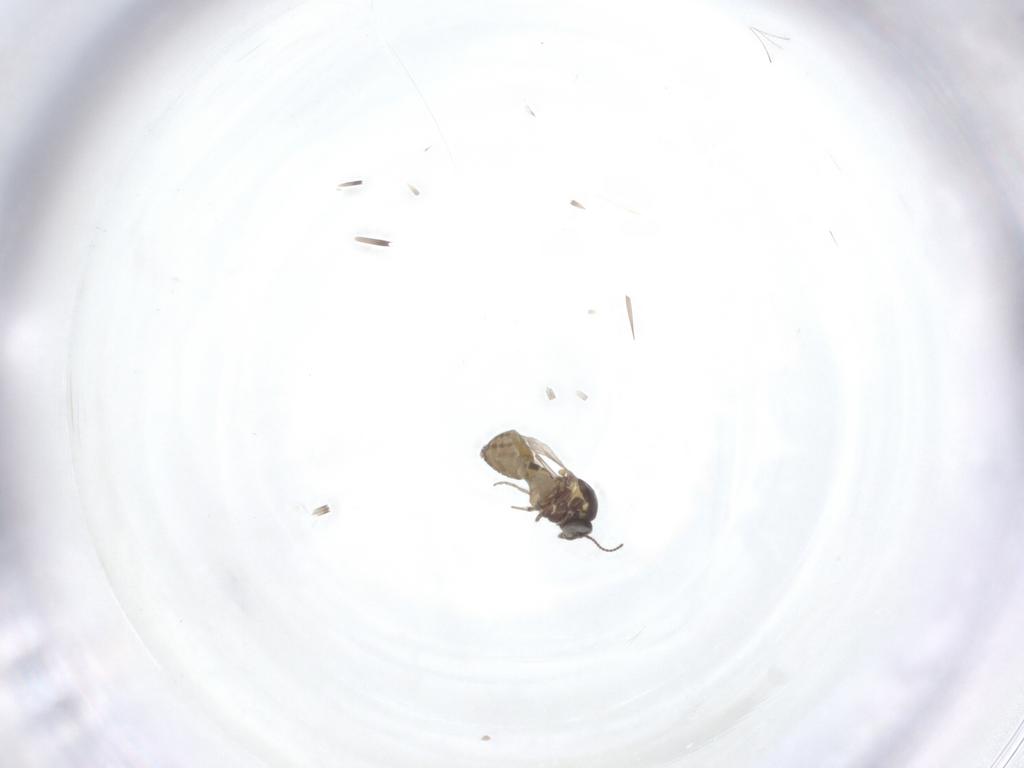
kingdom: Animalia
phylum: Arthropoda
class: Insecta
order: Diptera
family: Ceratopogonidae
